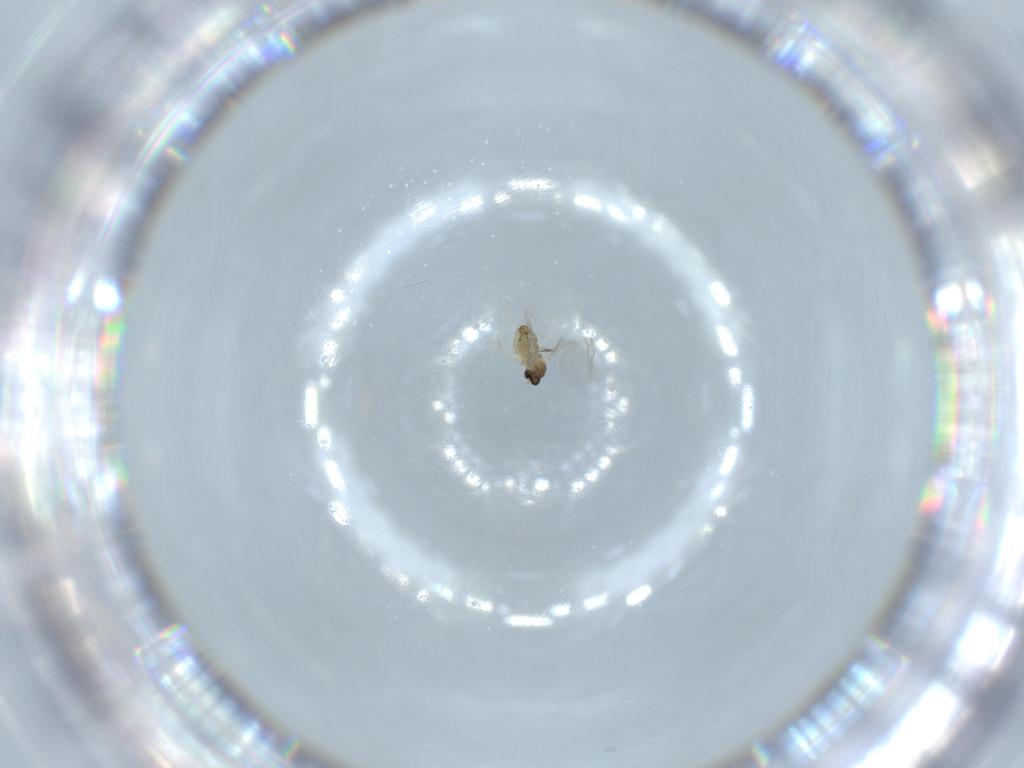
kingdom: Animalia
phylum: Arthropoda
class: Insecta
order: Diptera
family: Cecidomyiidae
